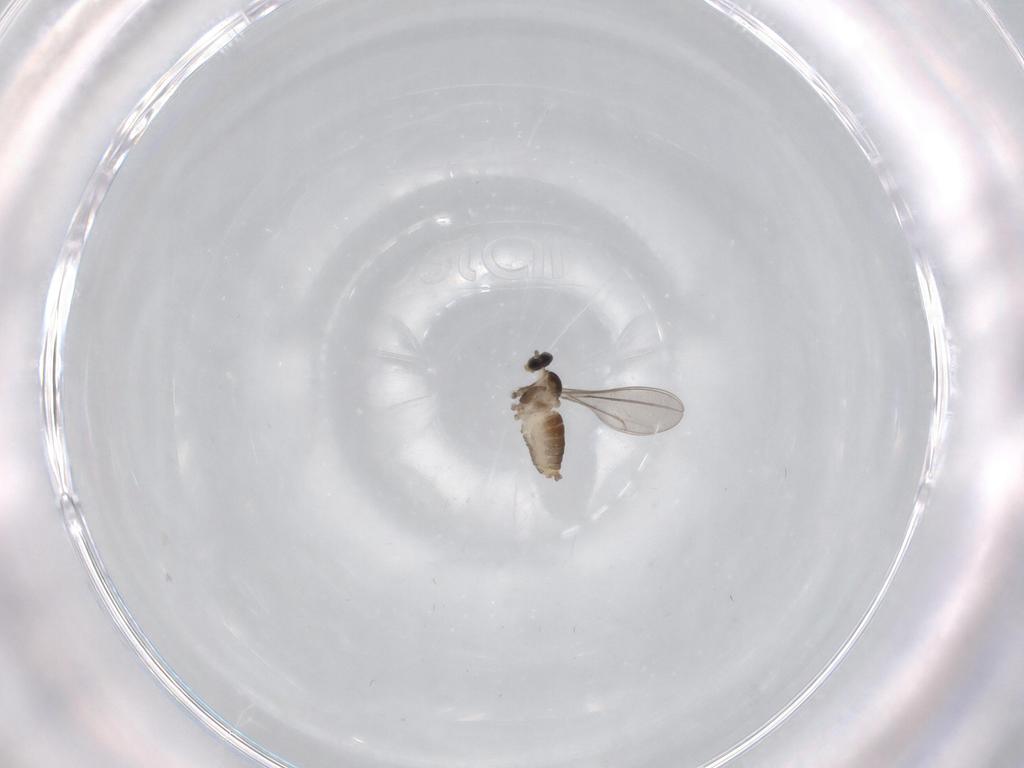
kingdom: Animalia
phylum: Arthropoda
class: Insecta
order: Diptera
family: Cecidomyiidae
